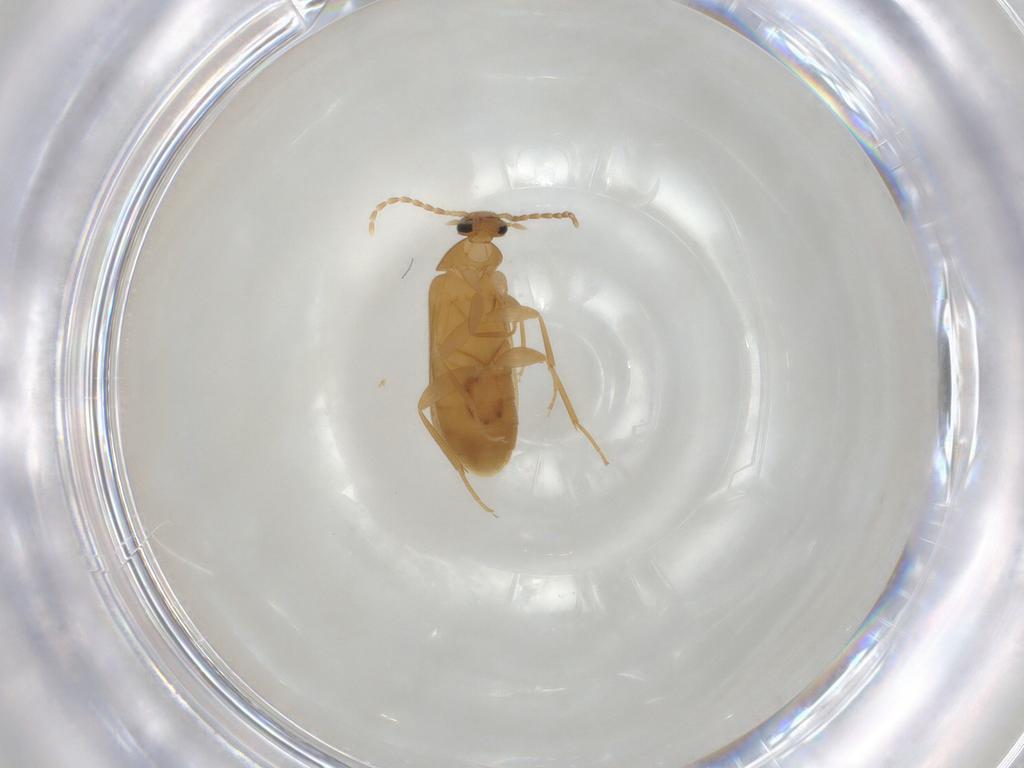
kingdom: Animalia
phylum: Arthropoda
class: Insecta
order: Coleoptera
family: Scraptiidae
